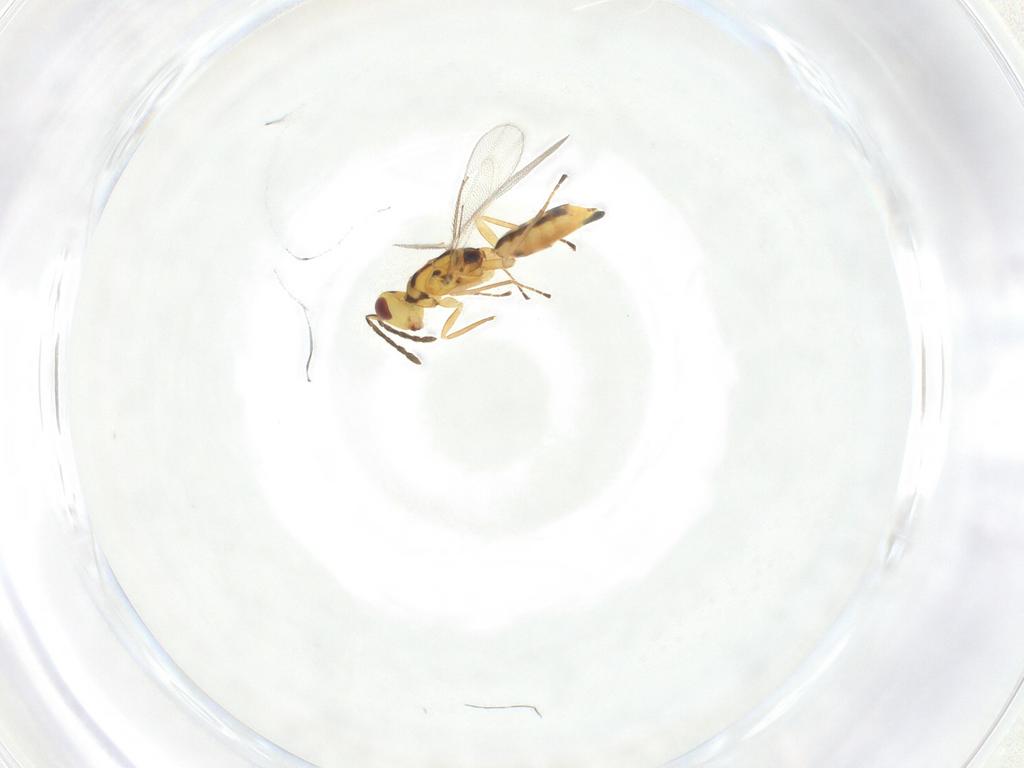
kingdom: Animalia
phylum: Arthropoda
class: Insecta
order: Hymenoptera
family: Eulophidae
